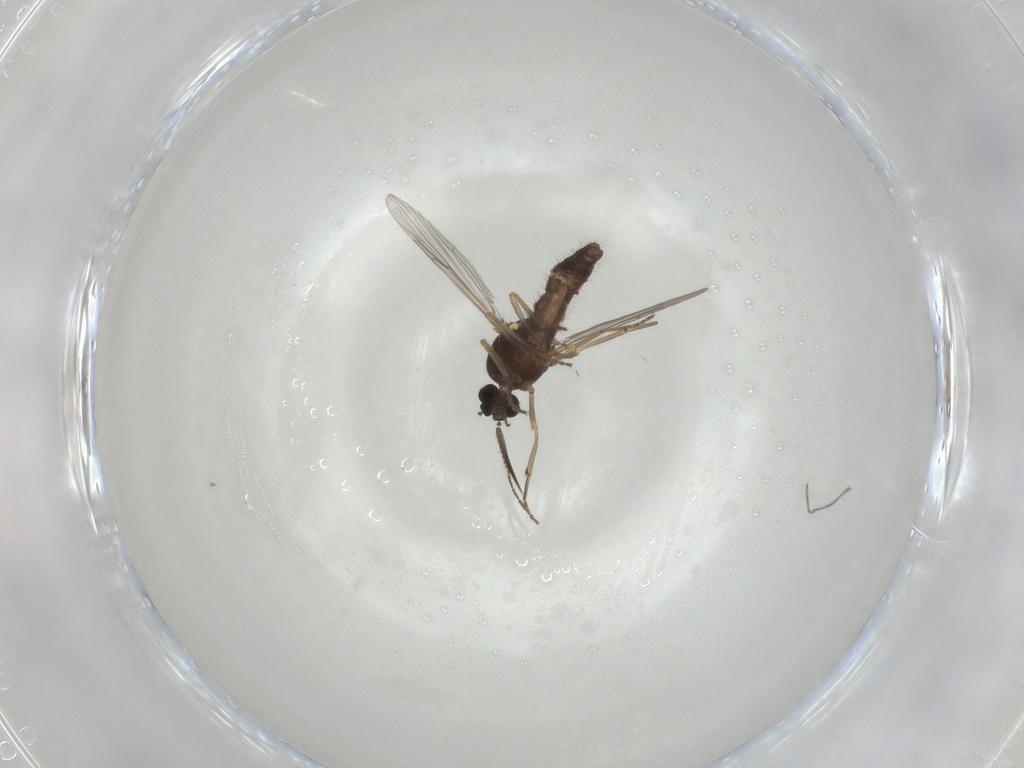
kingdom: Animalia
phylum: Arthropoda
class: Insecta
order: Diptera
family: Ceratopogonidae
